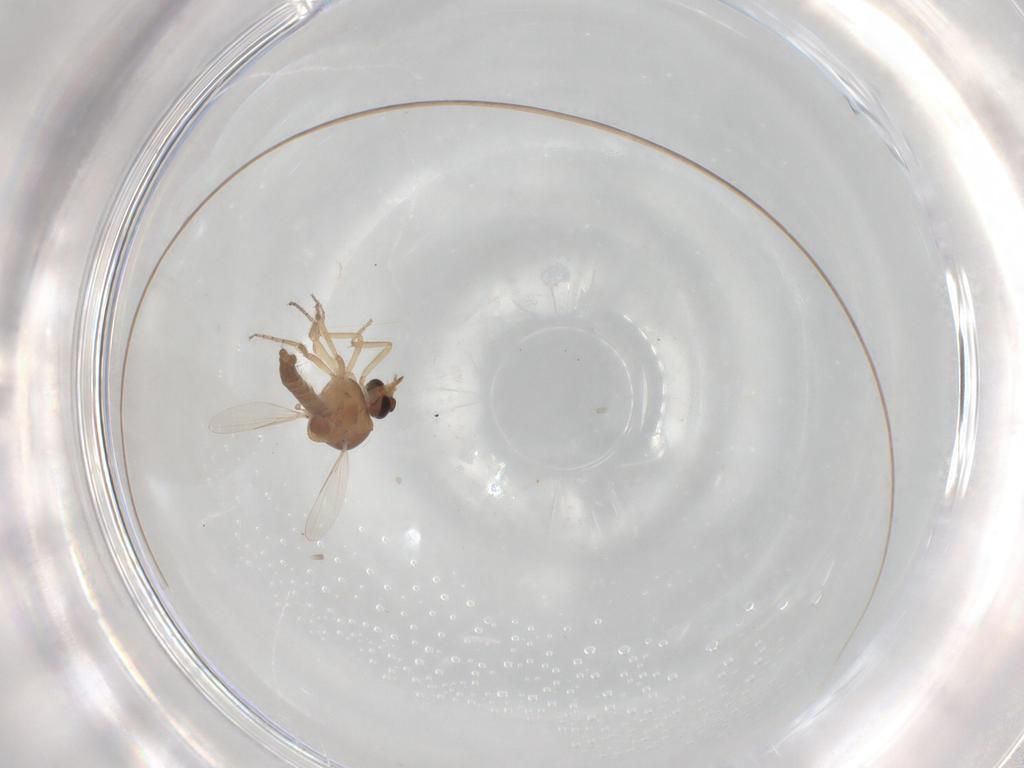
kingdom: Animalia
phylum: Arthropoda
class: Insecta
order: Diptera
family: Ceratopogonidae
